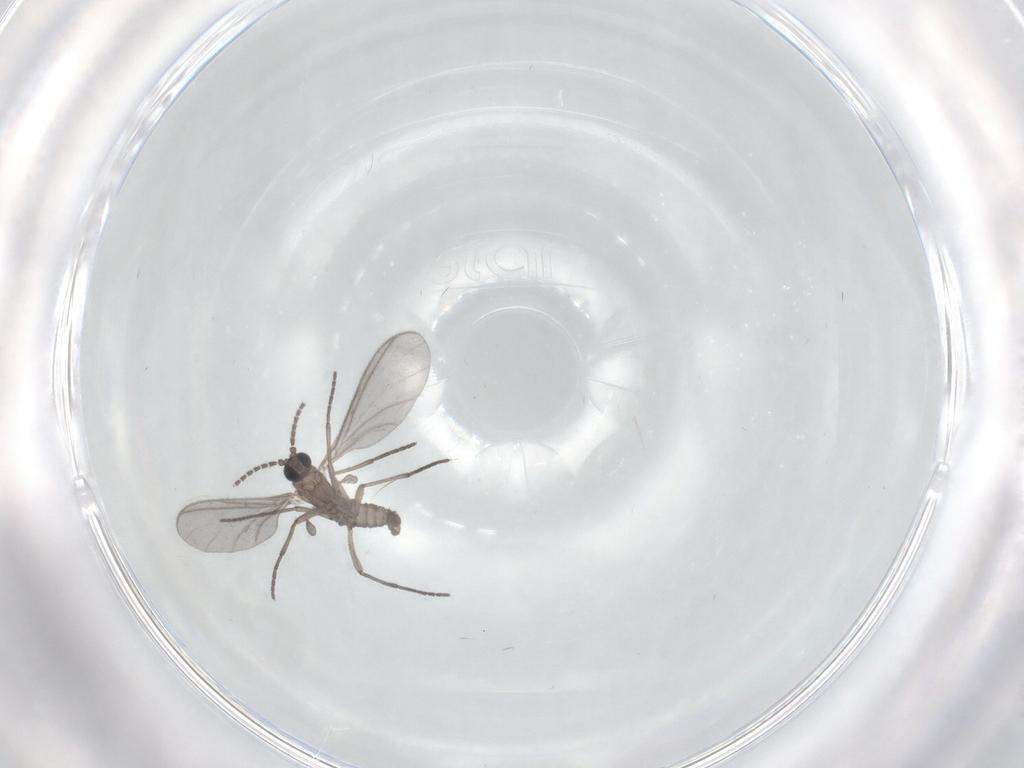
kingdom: Animalia
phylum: Arthropoda
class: Insecta
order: Diptera
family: Sciaridae
